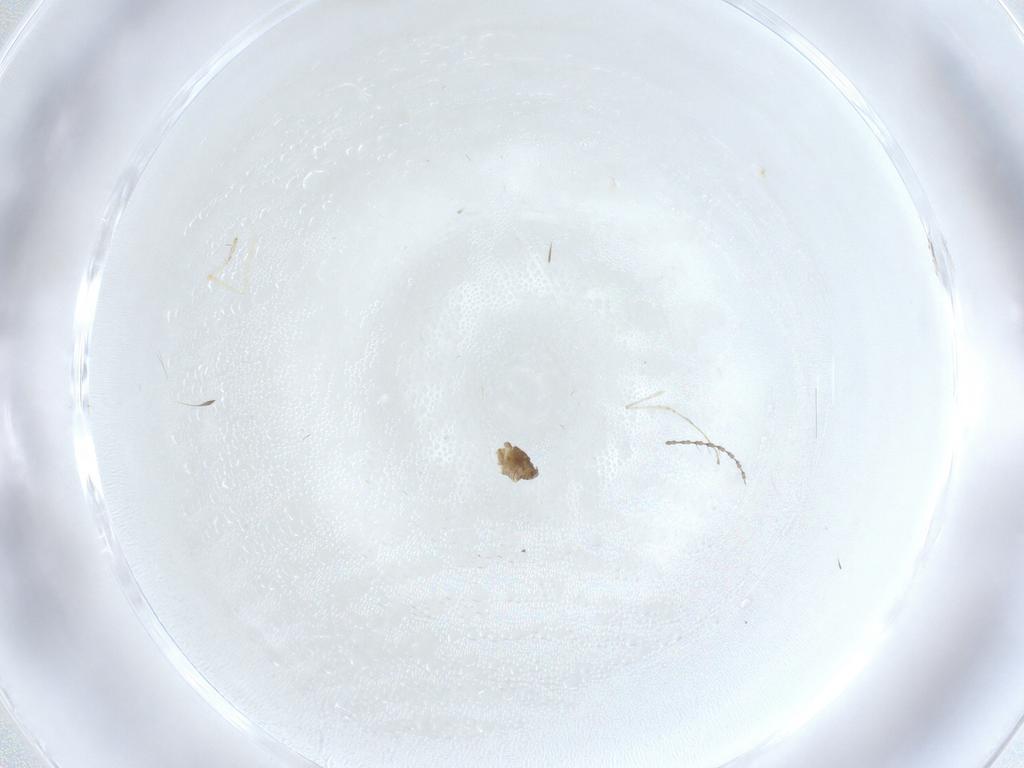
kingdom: Animalia
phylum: Arthropoda
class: Insecta
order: Diptera
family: Cecidomyiidae
